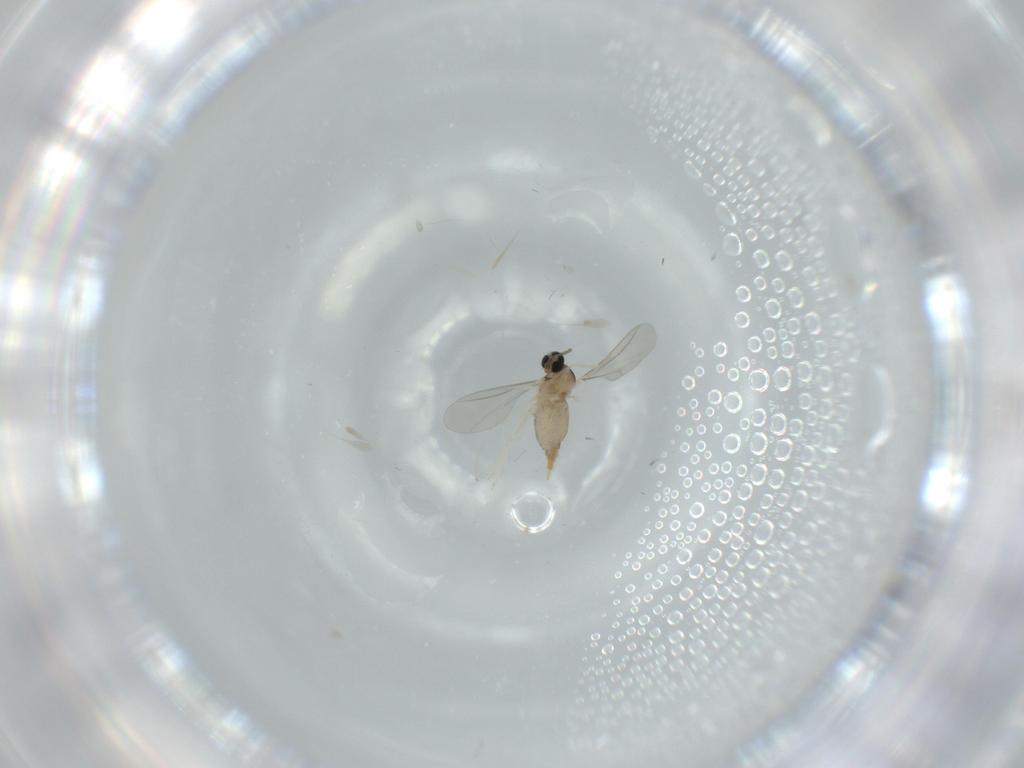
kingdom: Animalia
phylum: Arthropoda
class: Insecta
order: Diptera
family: Cecidomyiidae
